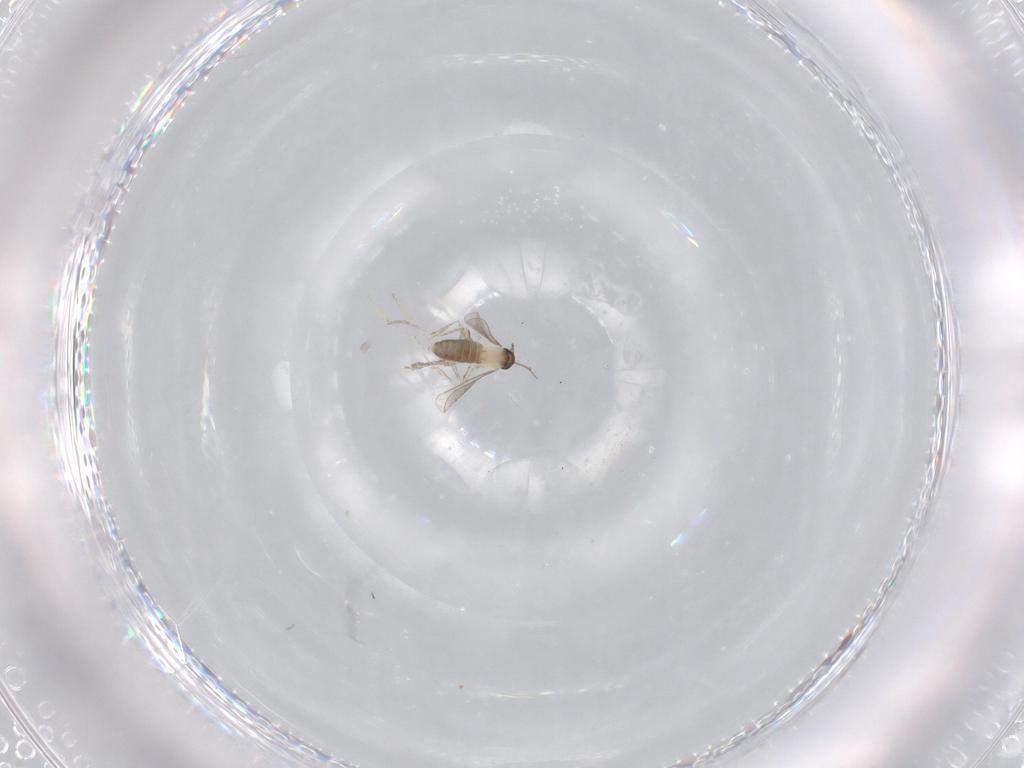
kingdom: Animalia
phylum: Arthropoda
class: Insecta
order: Diptera
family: Cecidomyiidae
